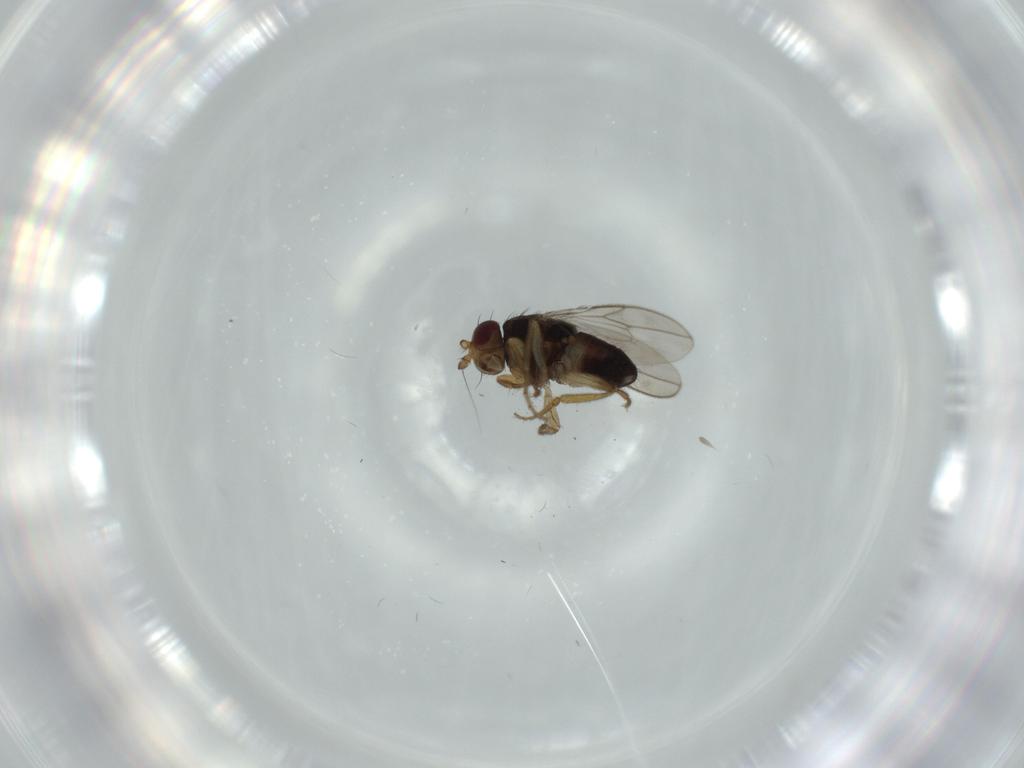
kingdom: Animalia
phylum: Arthropoda
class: Insecta
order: Diptera
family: Sphaeroceridae
